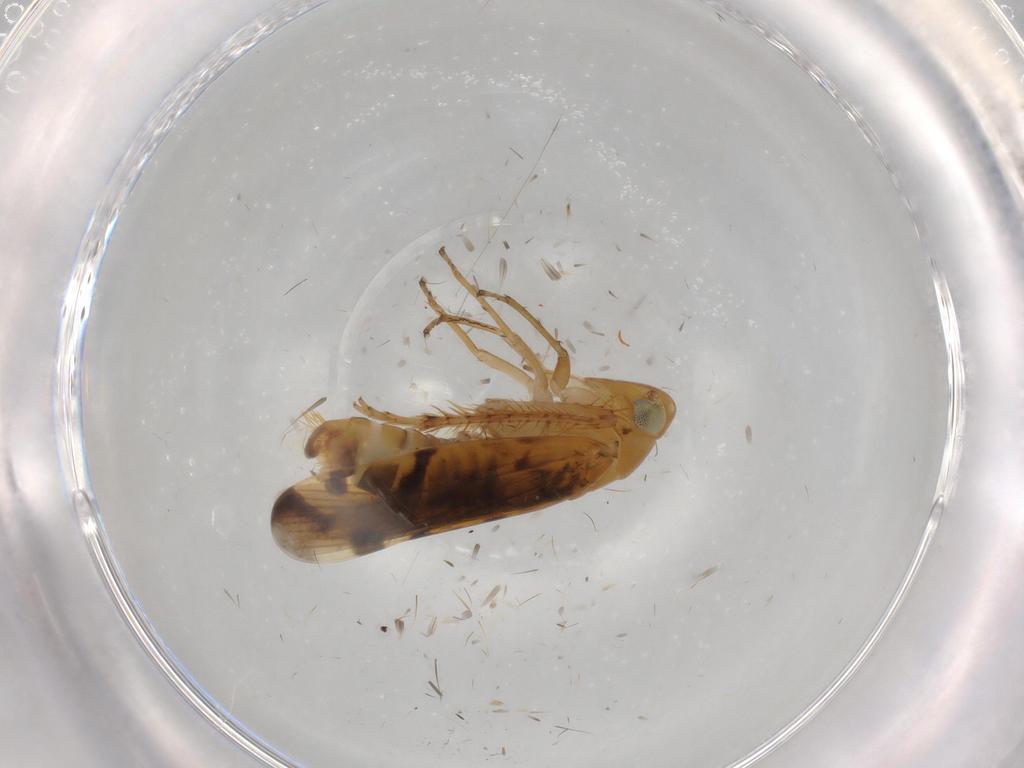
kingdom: Animalia
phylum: Arthropoda
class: Insecta
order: Hemiptera
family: Cicadellidae
